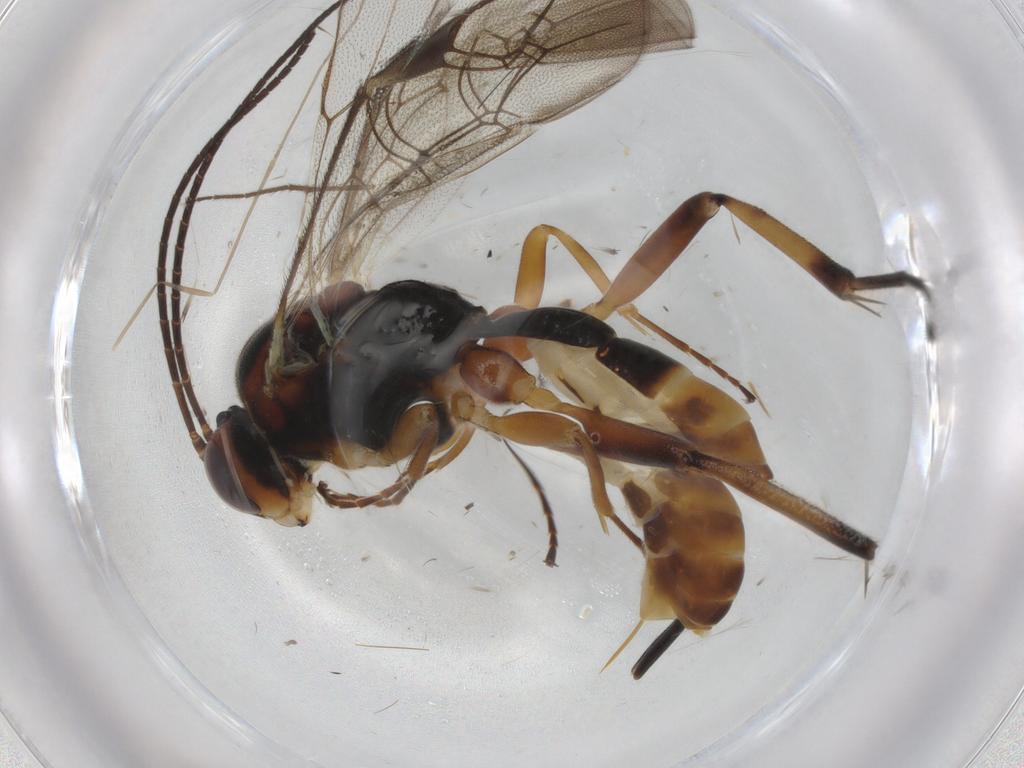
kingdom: Animalia
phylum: Arthropoda
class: Insecta
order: Hymenoptera
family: Ichneumonidae
